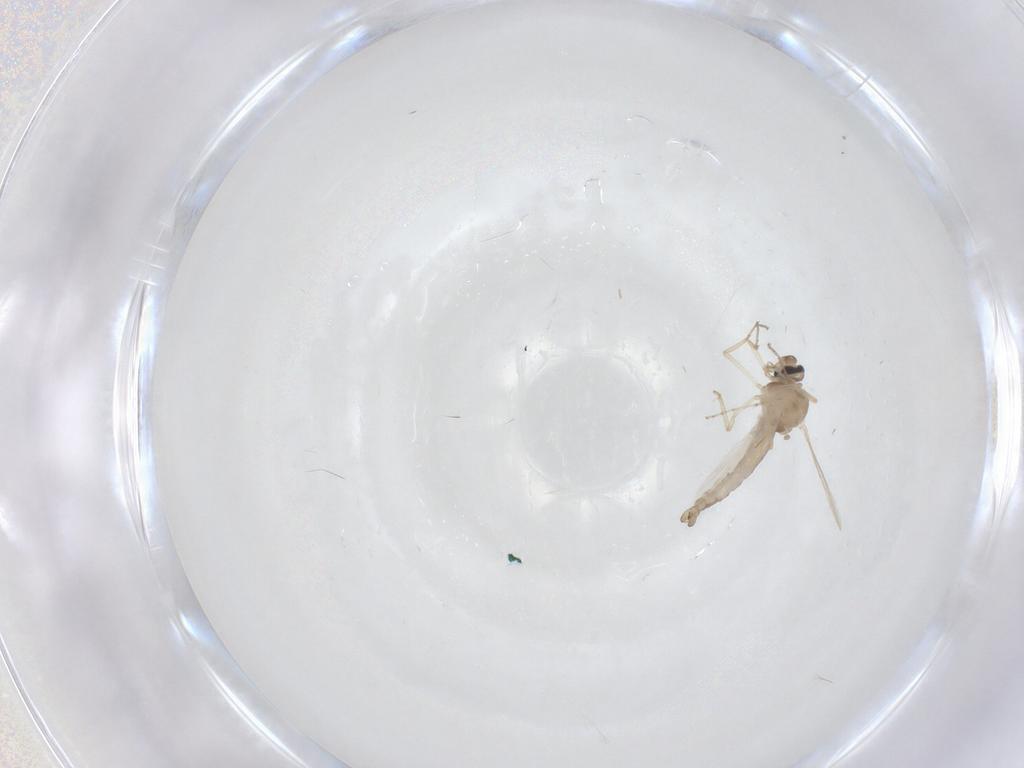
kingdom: Animalia
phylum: Arthropoda
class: Insecta
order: Diptera
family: Ceratopogonidae
